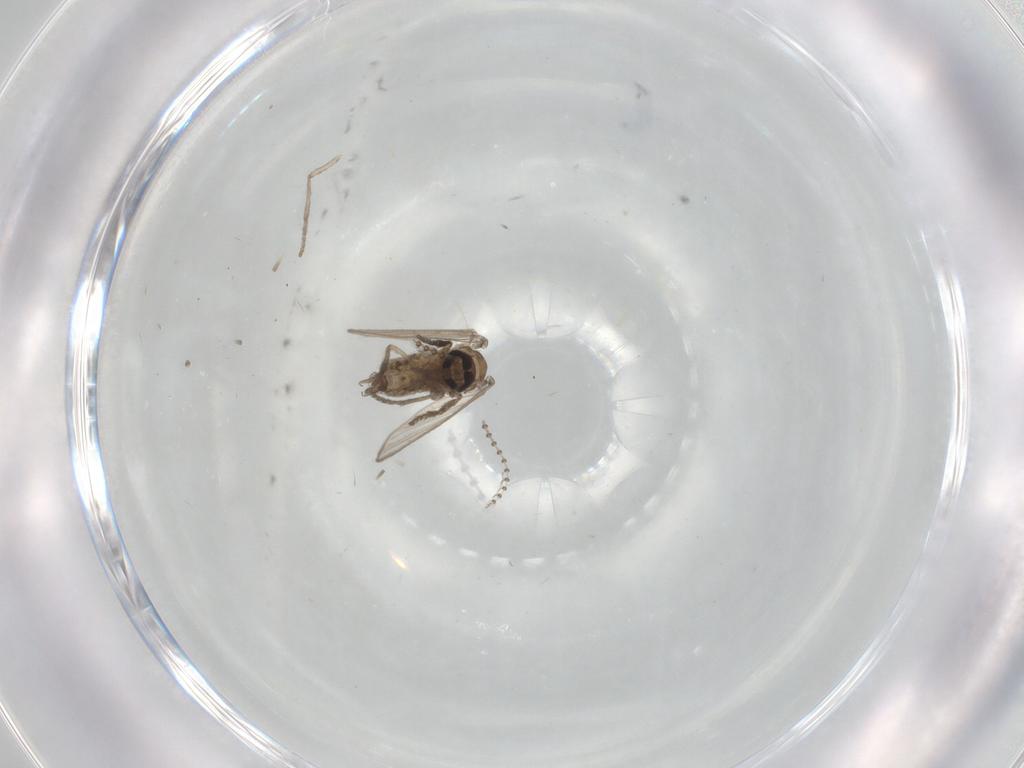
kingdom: Animalia
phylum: Arthropoda
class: Insecta
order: Diptera
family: Psychodidae
